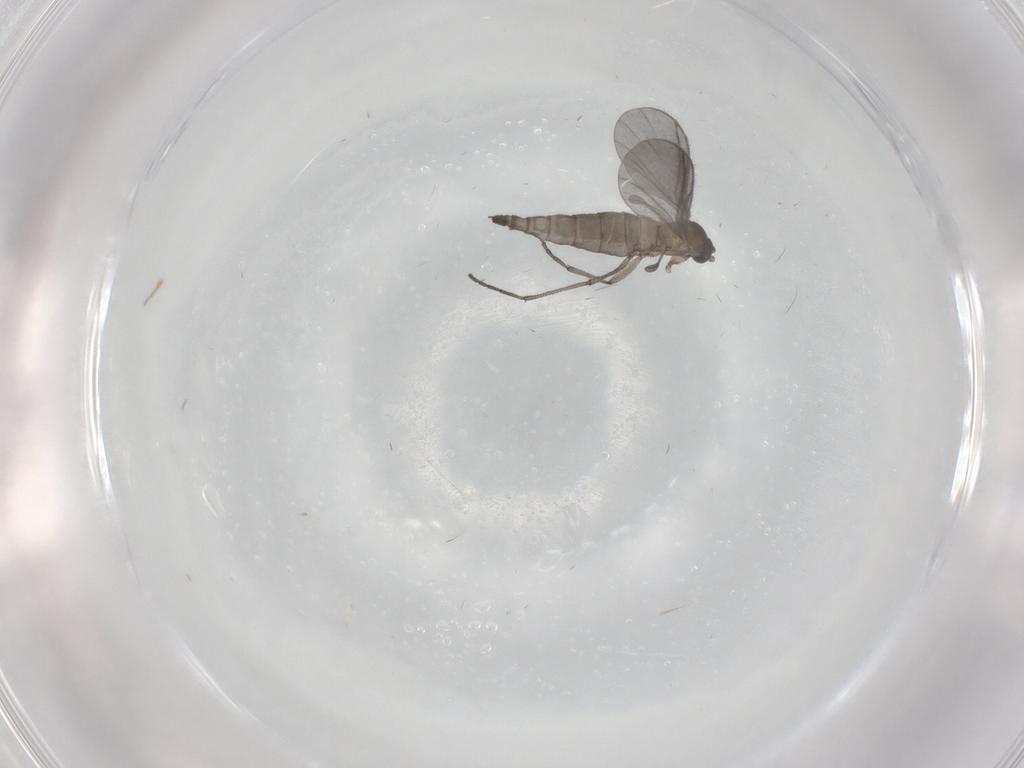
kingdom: Animalia
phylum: Arthropoda
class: Insecta
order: Diptera
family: Sciaridae
